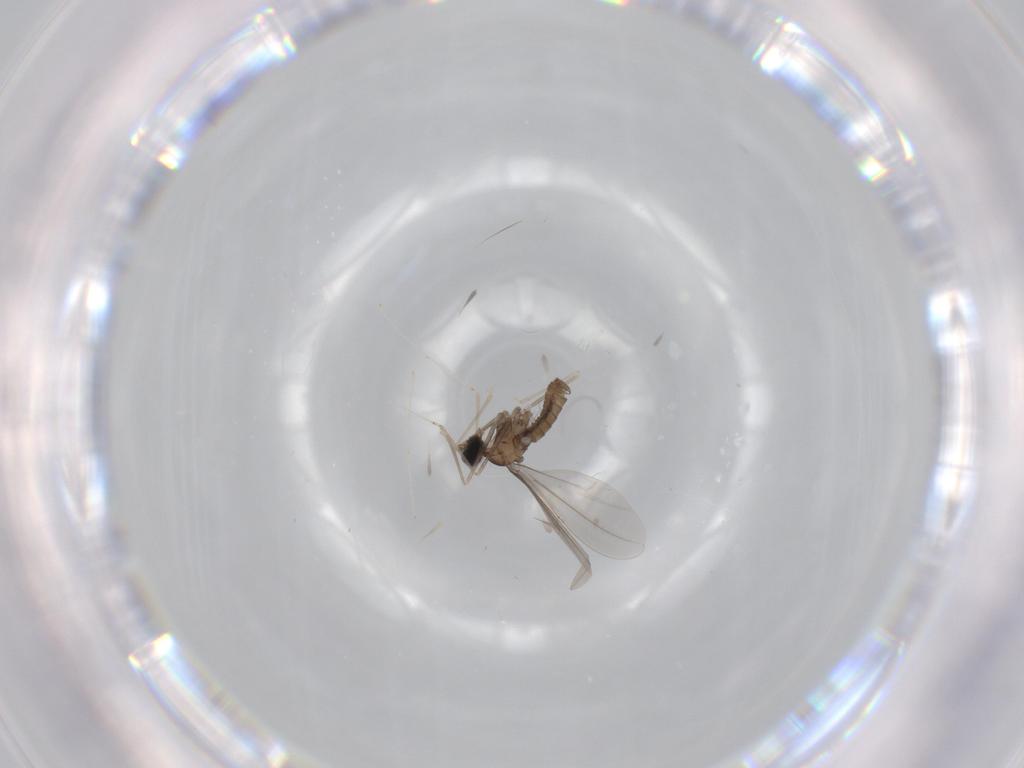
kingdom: Animalia
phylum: Arthropoda
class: Insecta
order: Diptera
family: Cecidomyiidae
